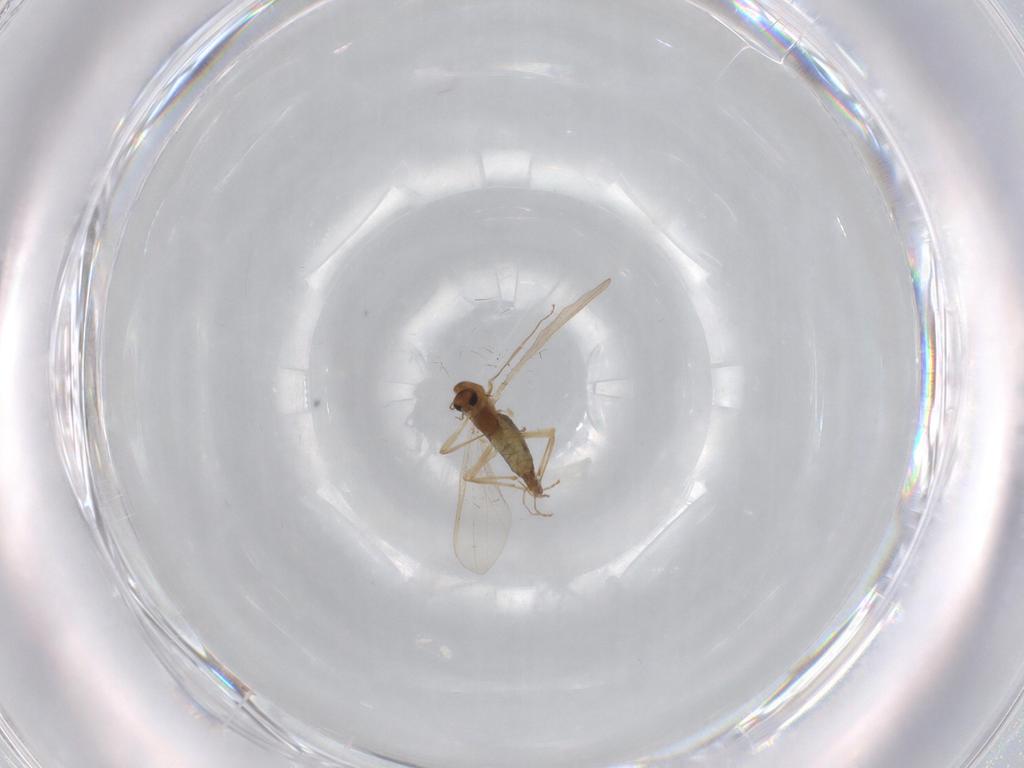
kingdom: Animalia
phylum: Arthropoda
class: Insecta
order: Diptera
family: Chironomidae
